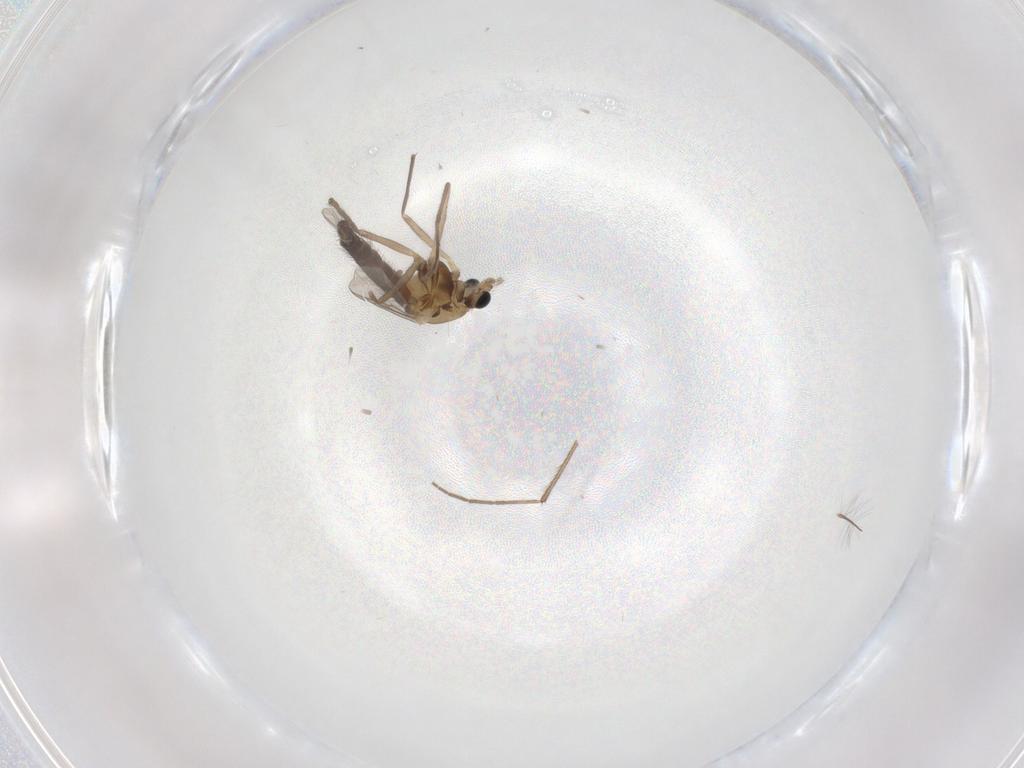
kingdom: Animalia
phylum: Arthropoda
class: Insecta
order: Diptera
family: Chironomidae
